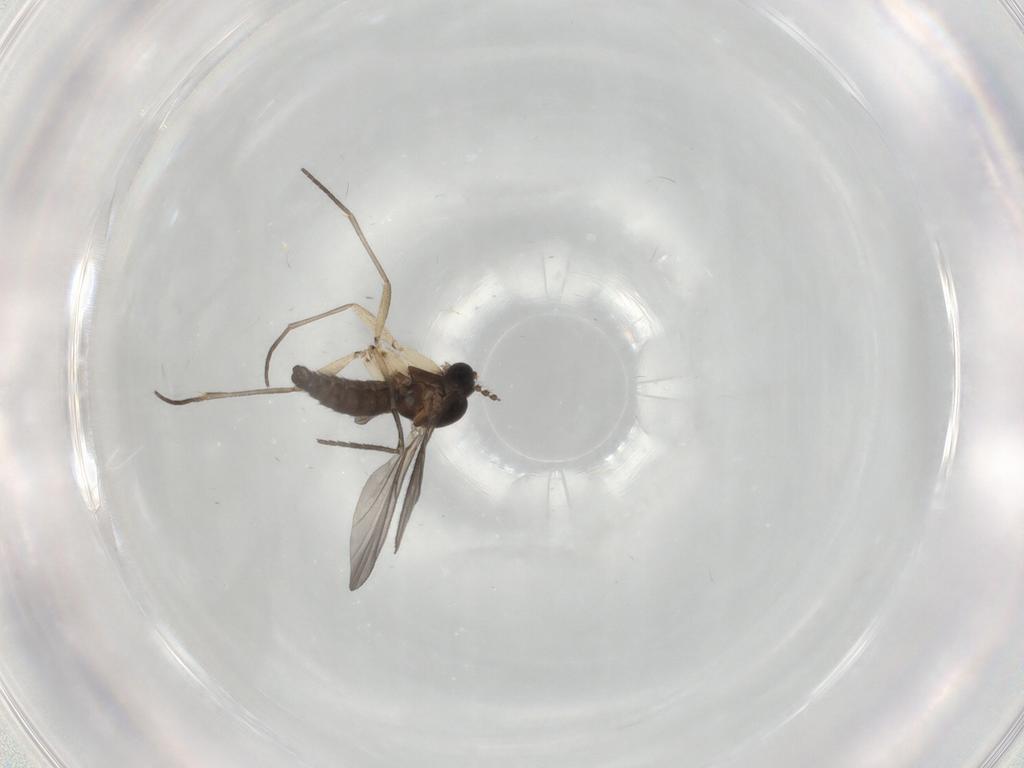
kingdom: Animalia
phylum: Arthropoda
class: Insecta
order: Diptera
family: Sciaridae
